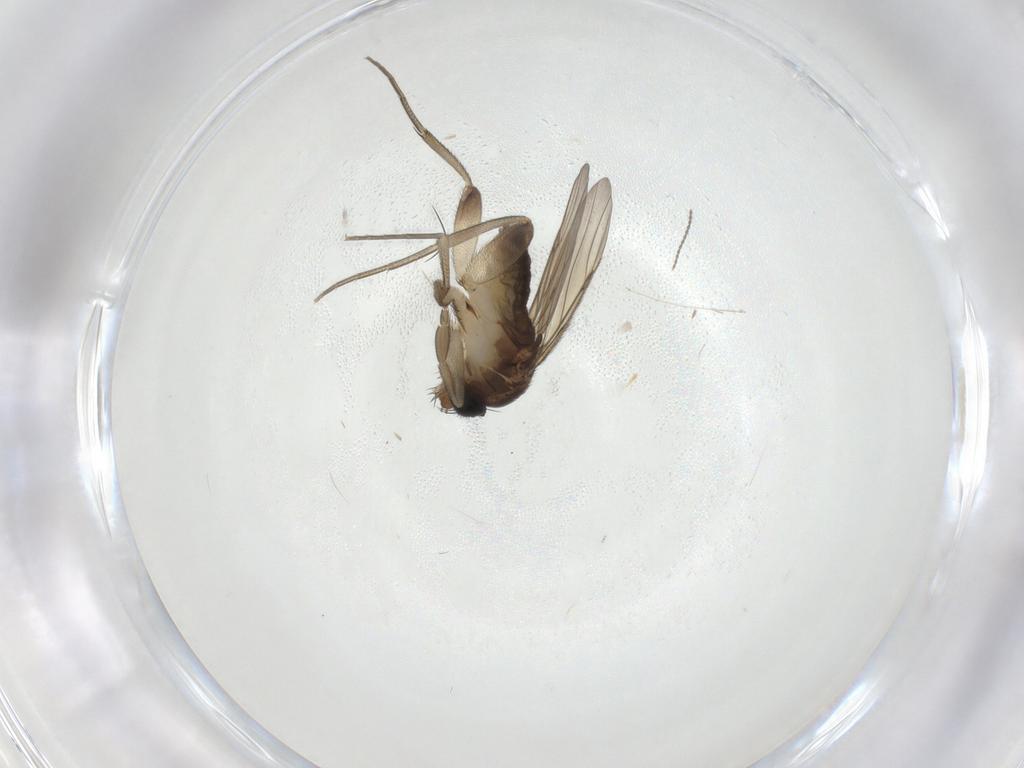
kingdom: Animalia
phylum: Arthropoda
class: Insecta
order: Diptera
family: Phoridae
